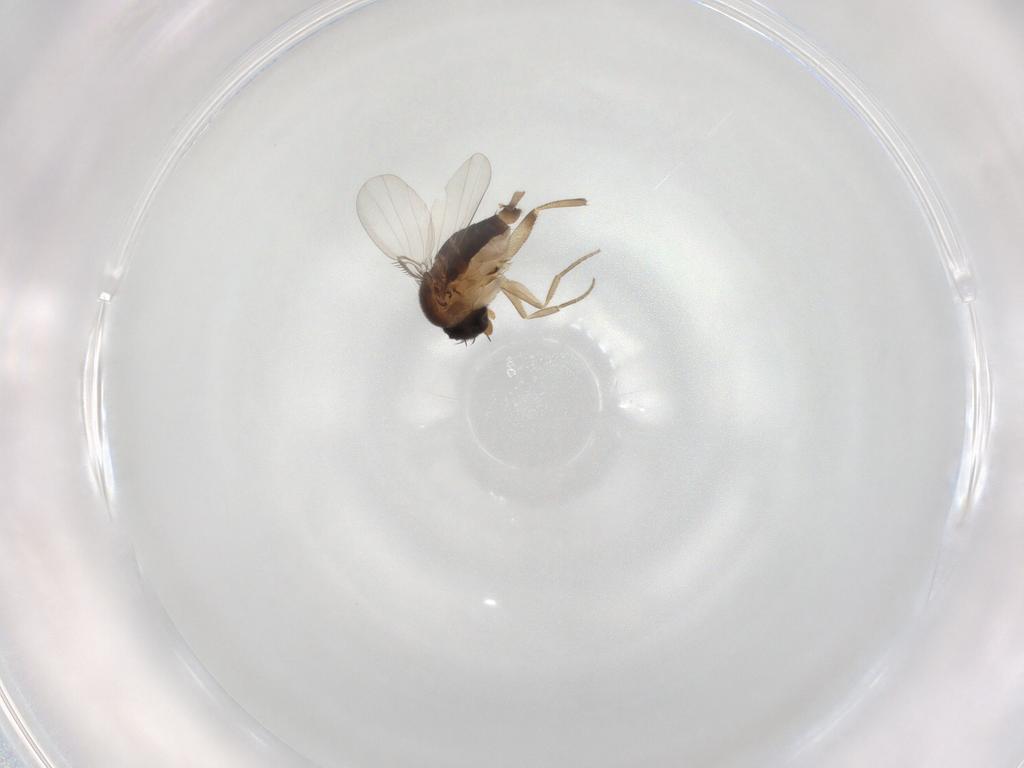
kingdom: Animalia
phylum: Arthropoda
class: Insecta
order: Diptera
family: Phoridae
